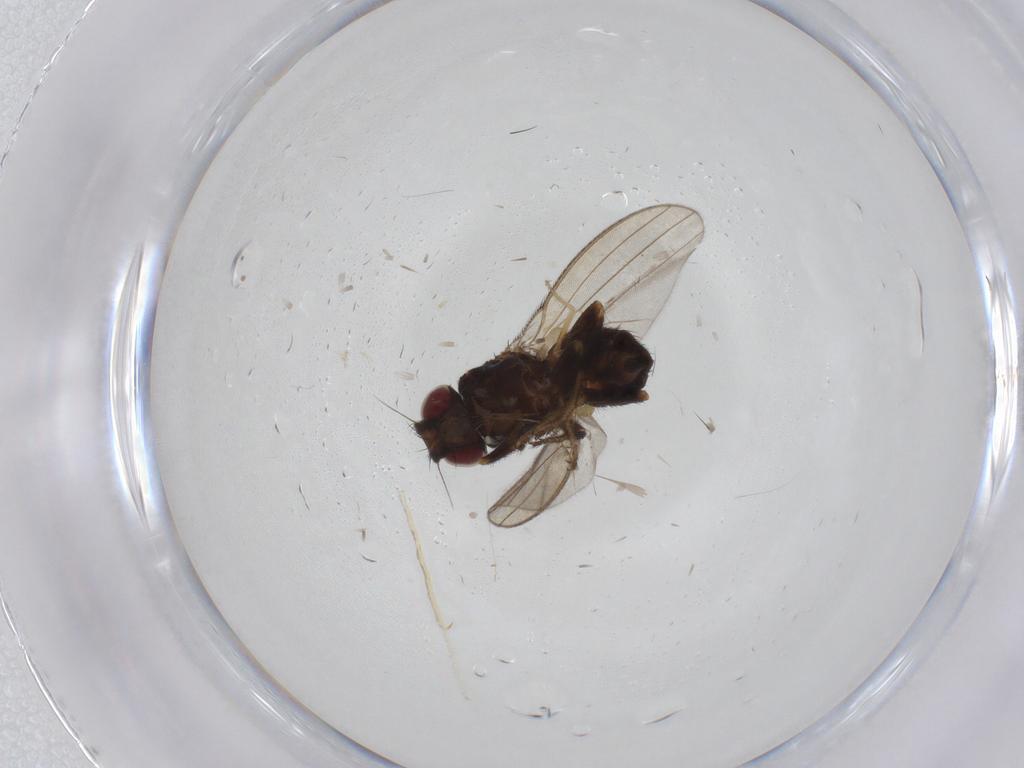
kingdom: Animalia
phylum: Arthropoda
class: Insecta
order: Diptera
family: Milichiidae
